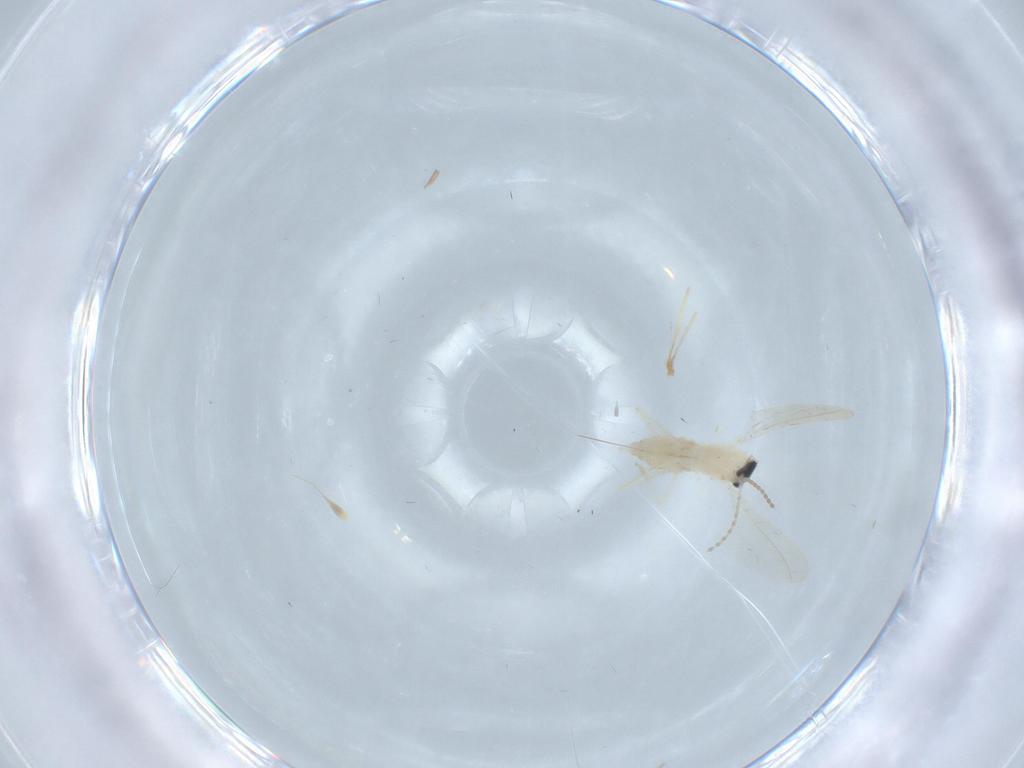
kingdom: Animalia
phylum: Arthropoda
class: Insecta
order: Diptera
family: Cecidomyiidae
